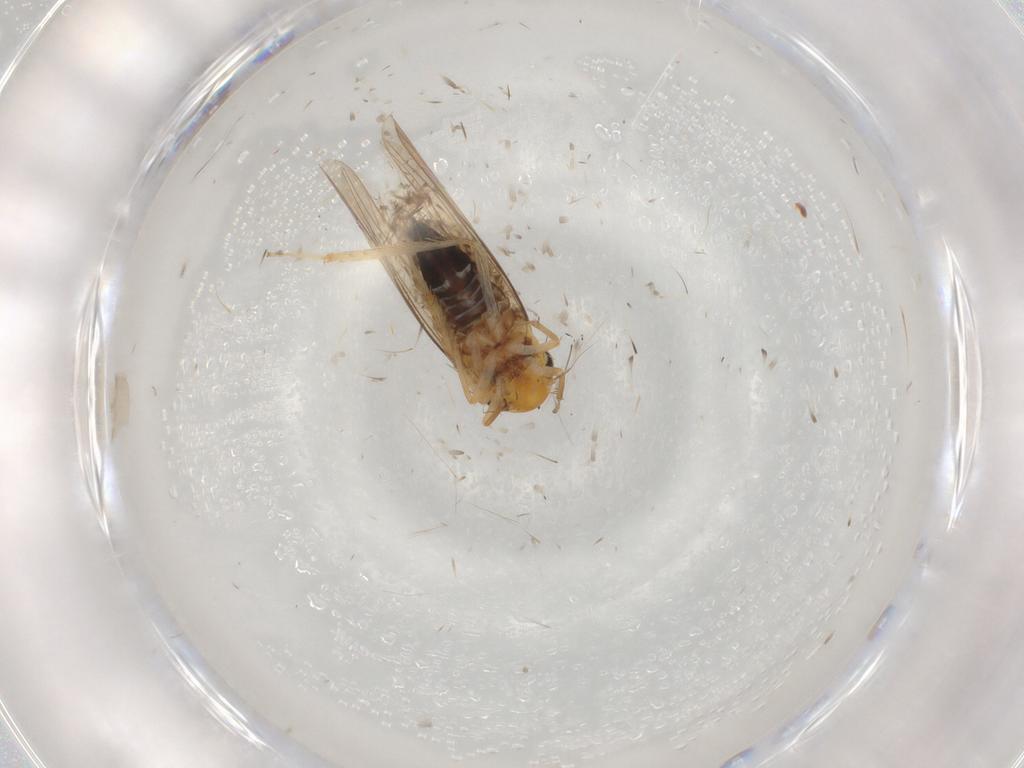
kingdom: Animalia
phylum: Arthropoda
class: Insecta
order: Hemiptera
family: Cicadellidae
